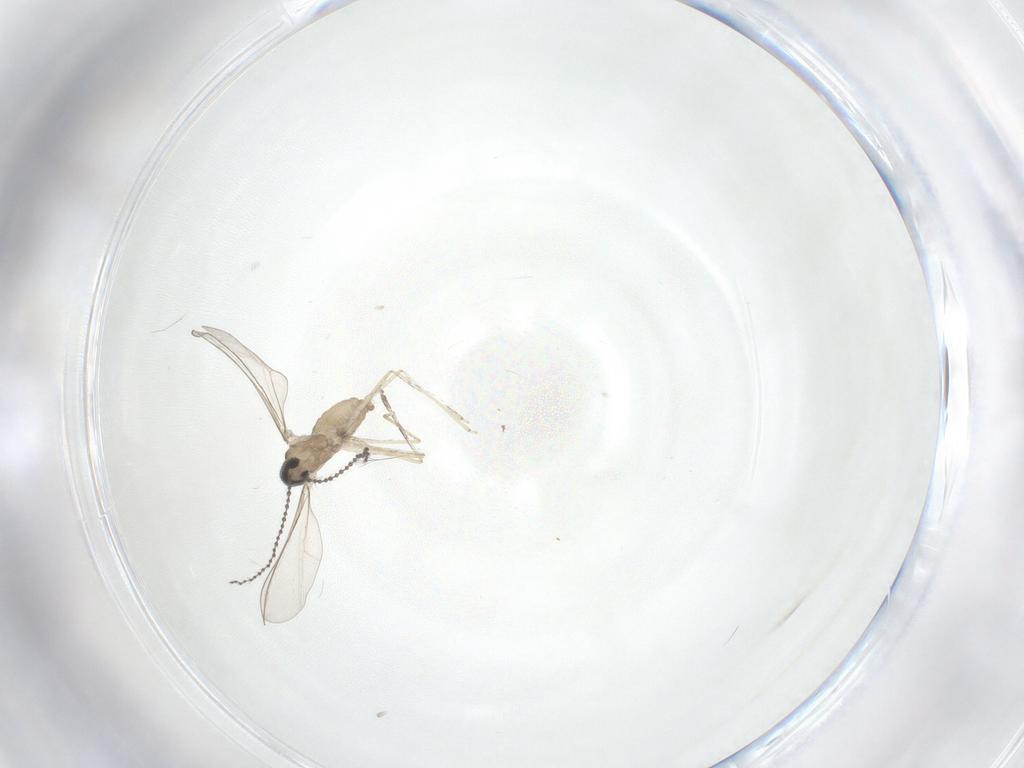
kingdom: Animalia
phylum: Arthropoda
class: Insecta
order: Diptera
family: Cecidomyiidae
